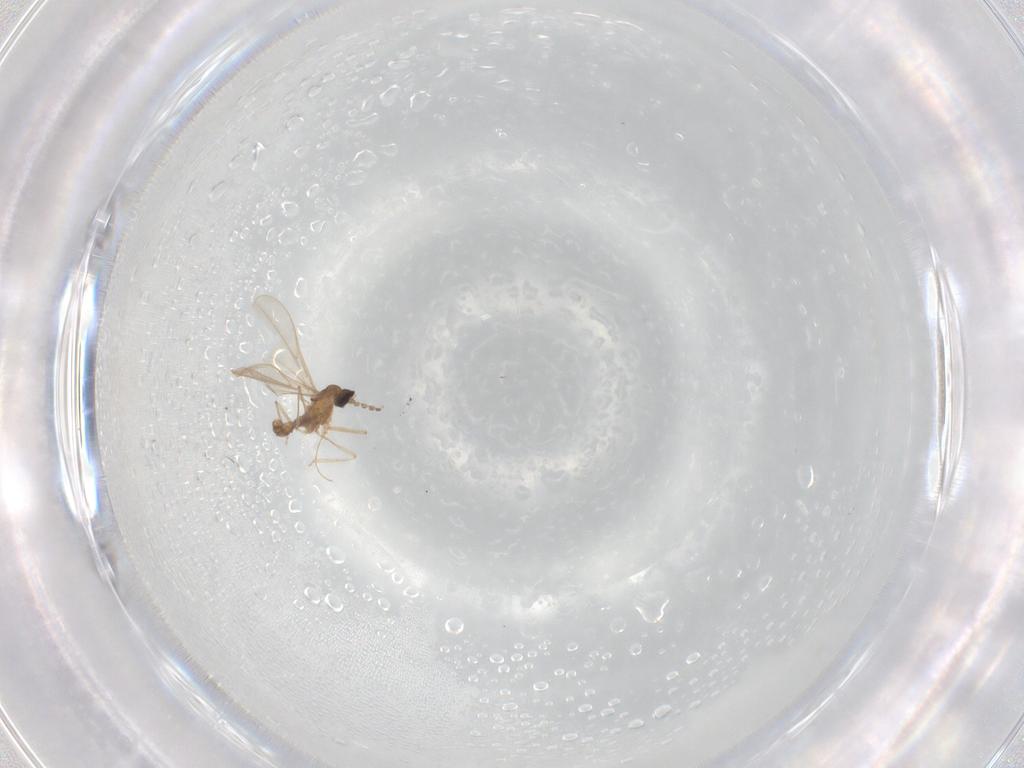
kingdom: Animalia
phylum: Arthropoda
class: Insecta
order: Diptera
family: Cecidomyiidae
